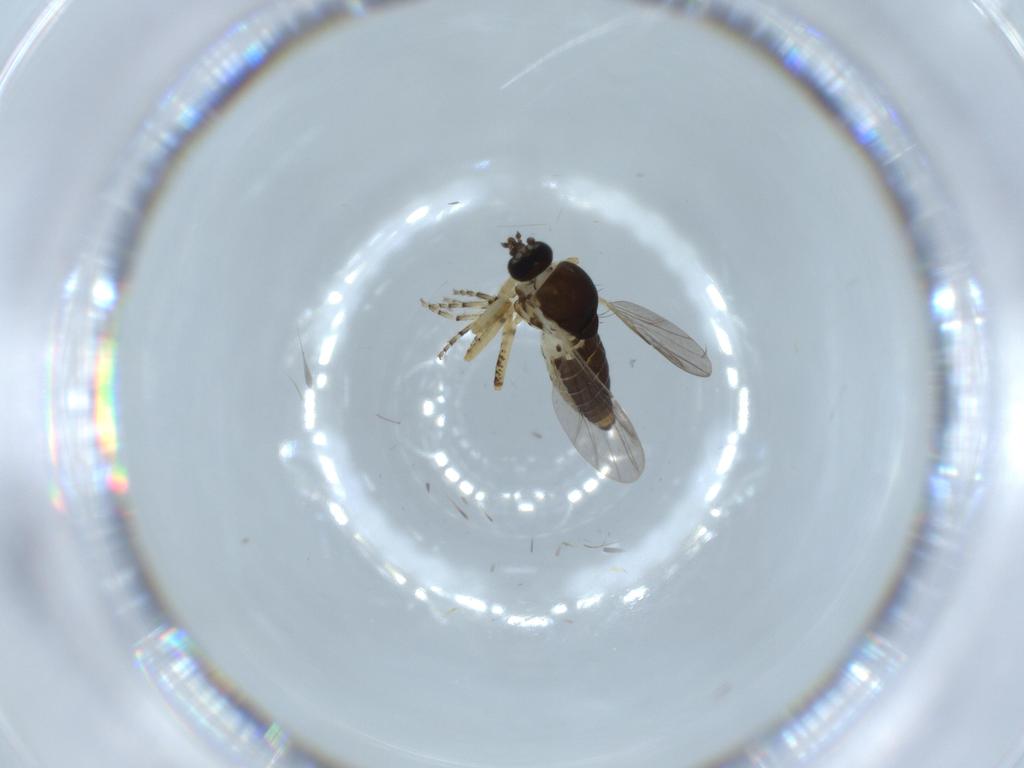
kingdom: Animalia
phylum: Arthropoda
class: Insecta
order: Diptera
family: Ceratopogonidae
